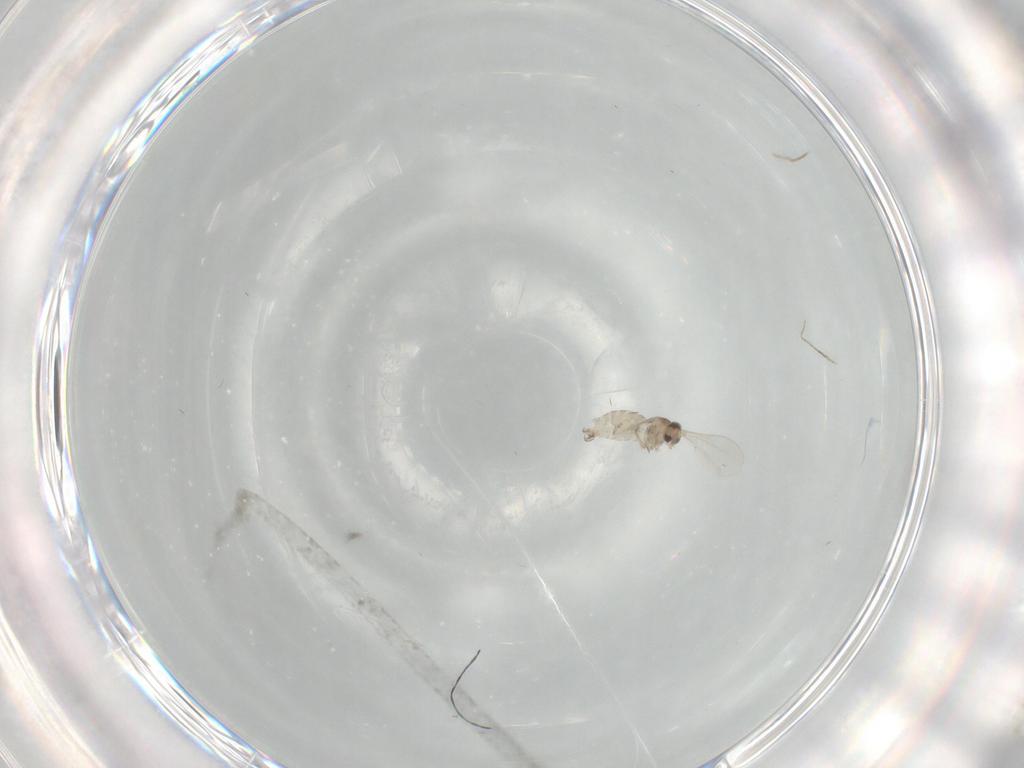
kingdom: Animalia
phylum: Arthropoda
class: Insecta
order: Diptera
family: Cecidomyiidae
